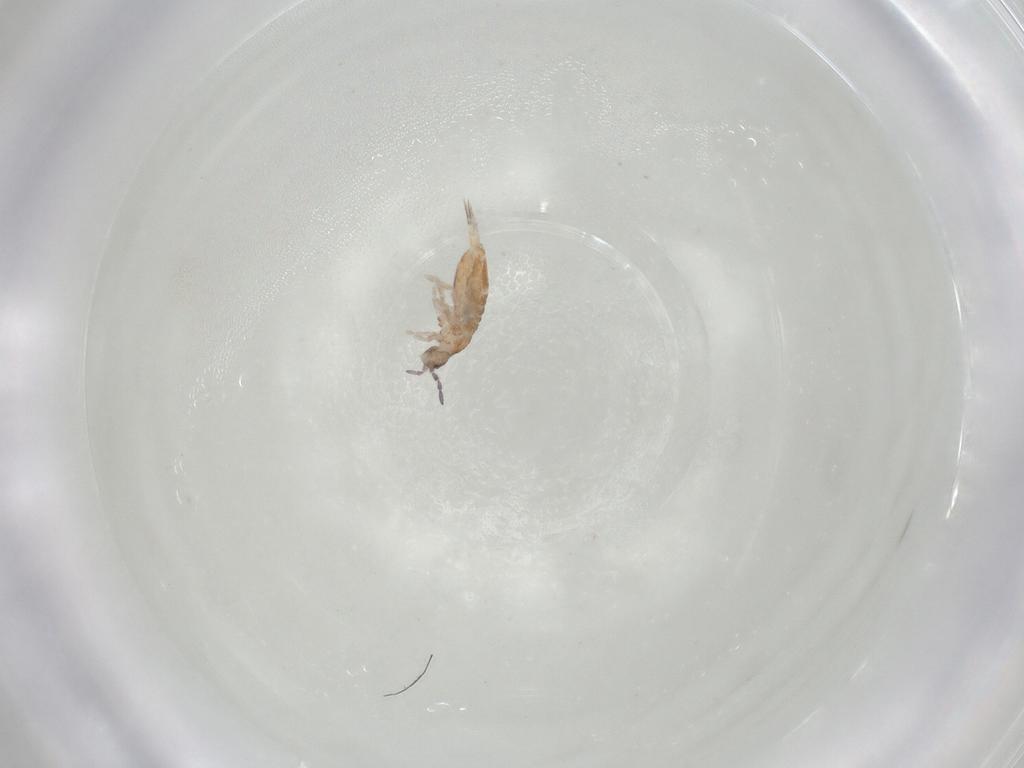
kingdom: Animalia
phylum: Arthropoda
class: Collembola
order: Entomobryomorpha
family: Entomobryidae
